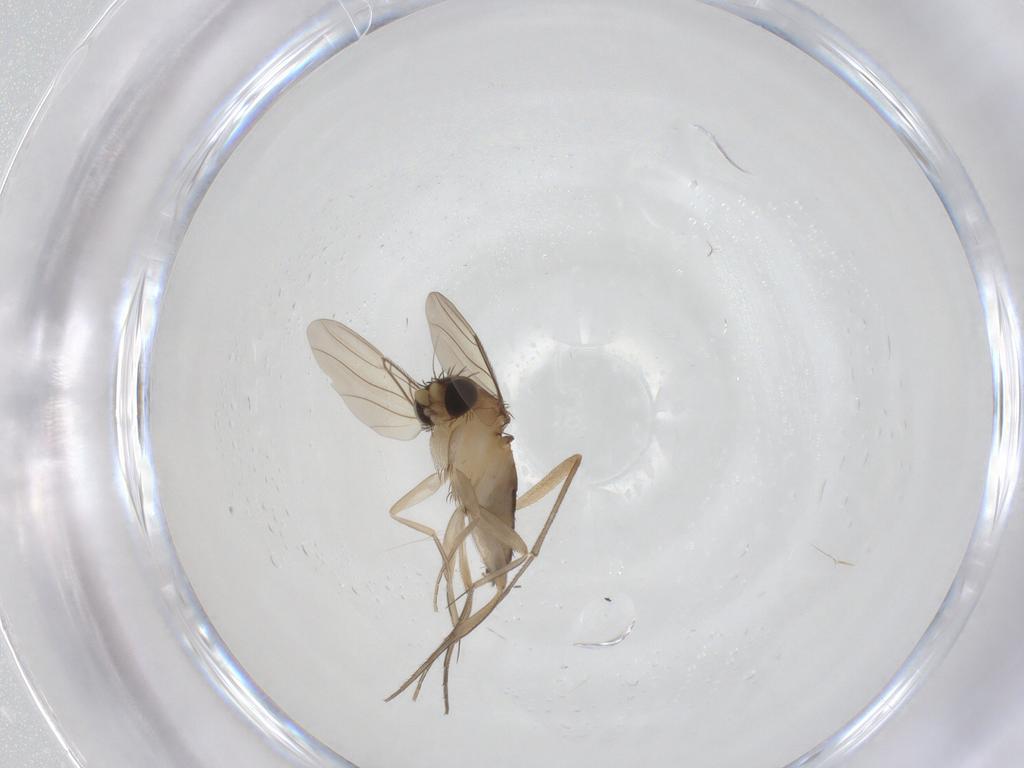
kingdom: Animalia
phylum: Arthropoda
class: Insecta
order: Diptera
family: Phoridae
